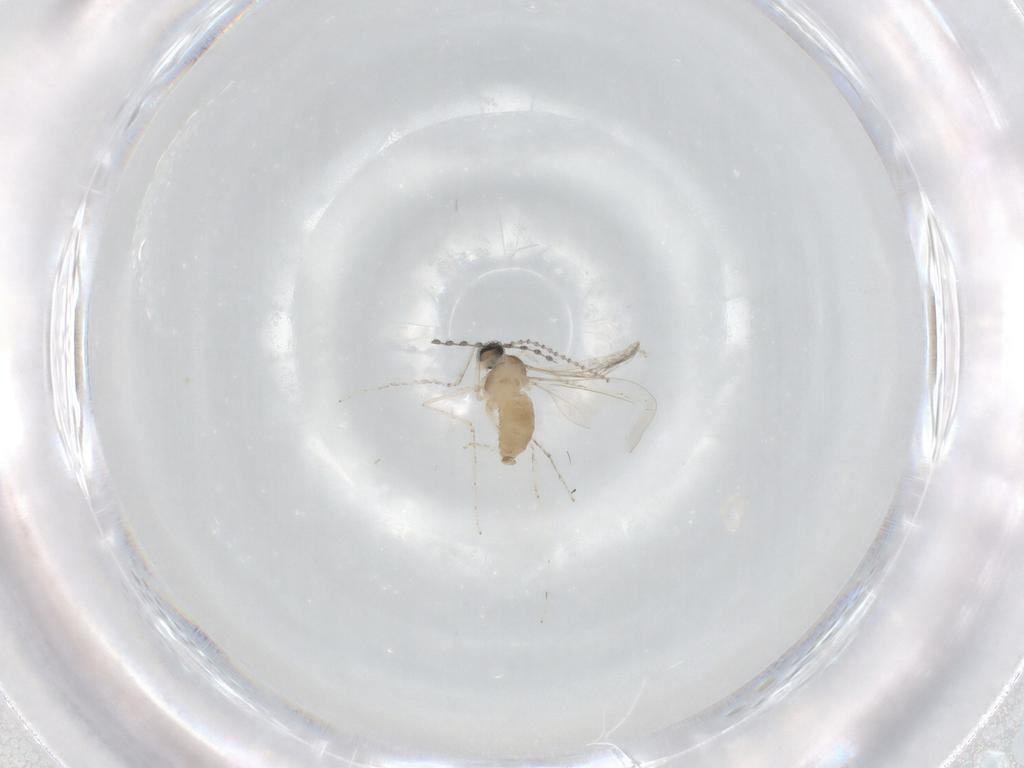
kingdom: Animalia
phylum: Arthropoda
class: Insecta
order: Diptera
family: Cecidomyiidae
